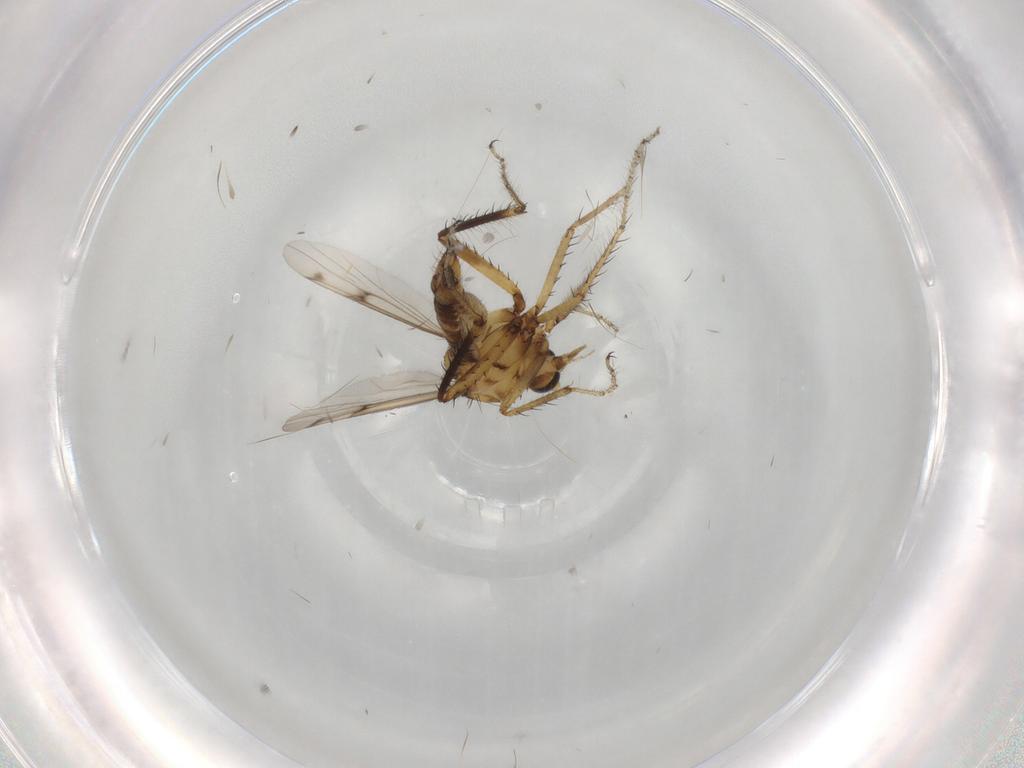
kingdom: Animalia
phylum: Arthropoda
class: Insecta
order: Diptera
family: Ceratopogonidae
